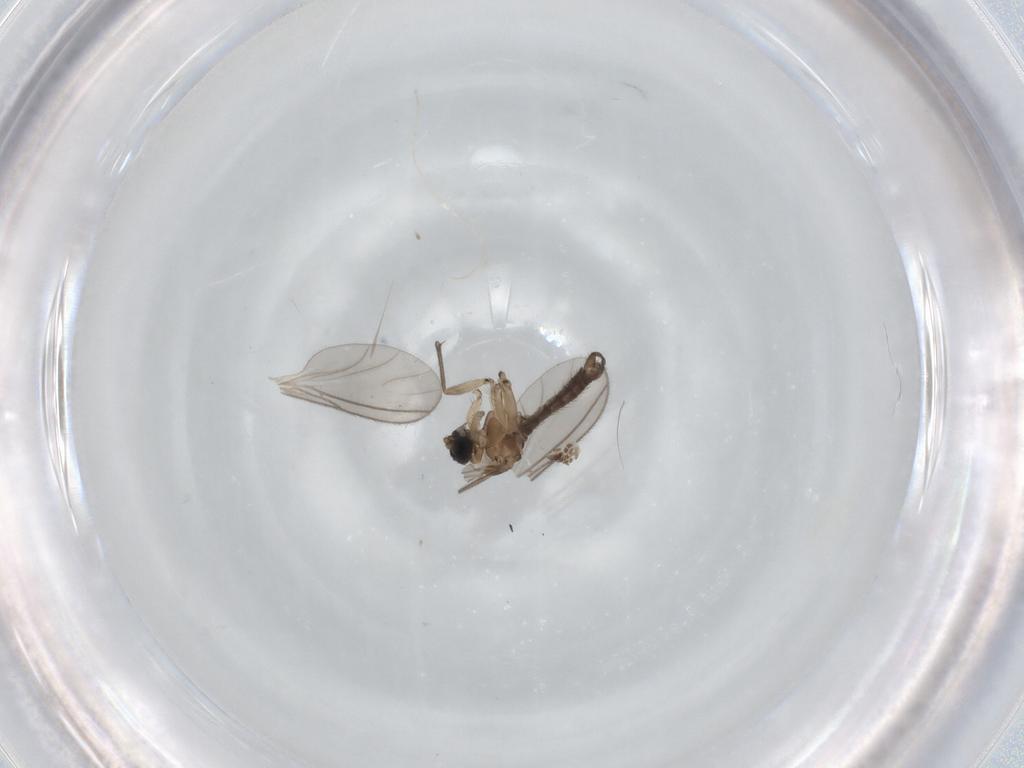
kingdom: Animalia
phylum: Arthropoda
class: Insecta
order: Diptera
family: Sciaridae
